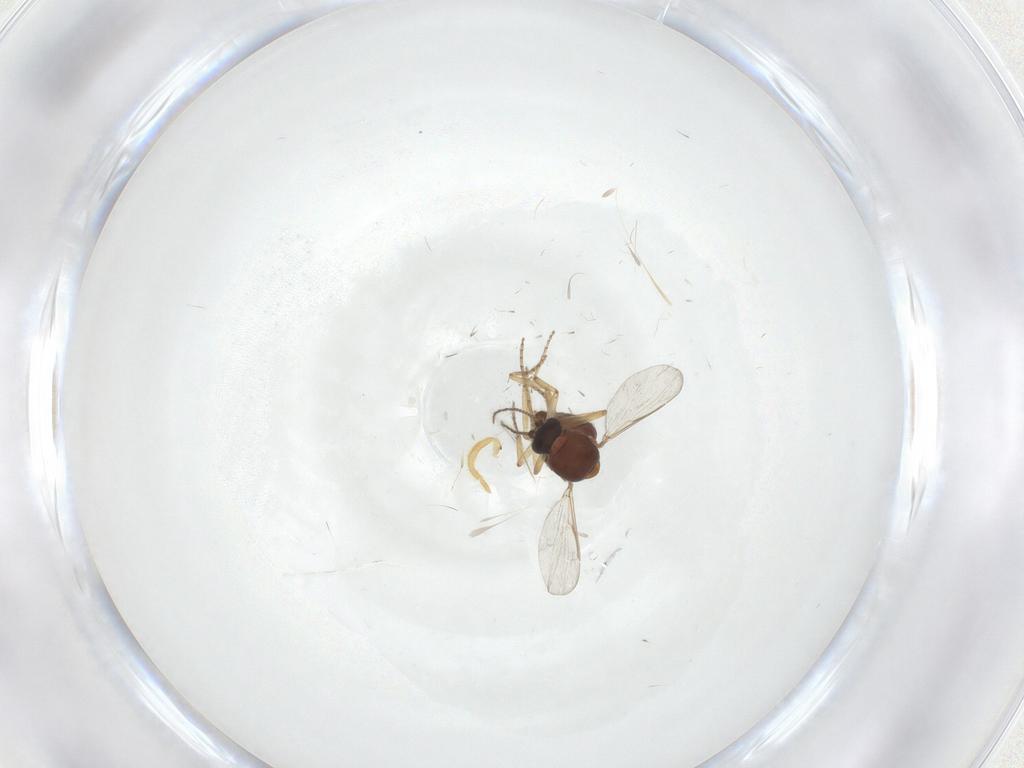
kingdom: Animalia
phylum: Arthropoda
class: Insecta
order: Diptera
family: Ceratopogonidae
